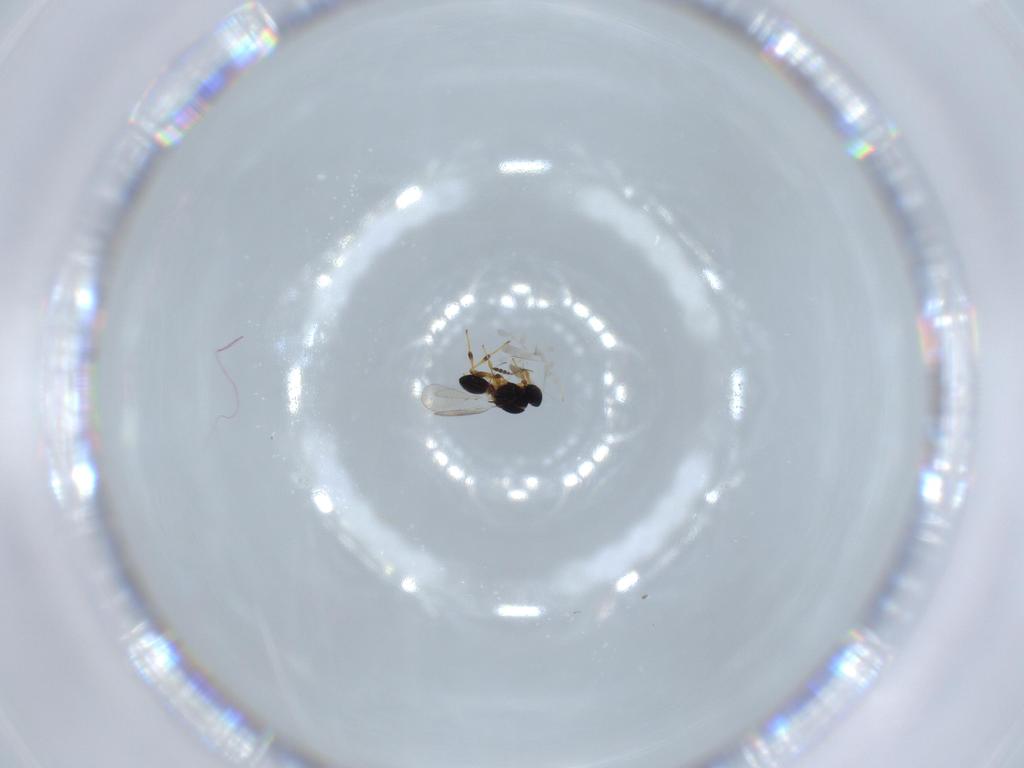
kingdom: Animalia
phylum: Arthropoda
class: Insecta
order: Hymenoptera
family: Platygastridae
